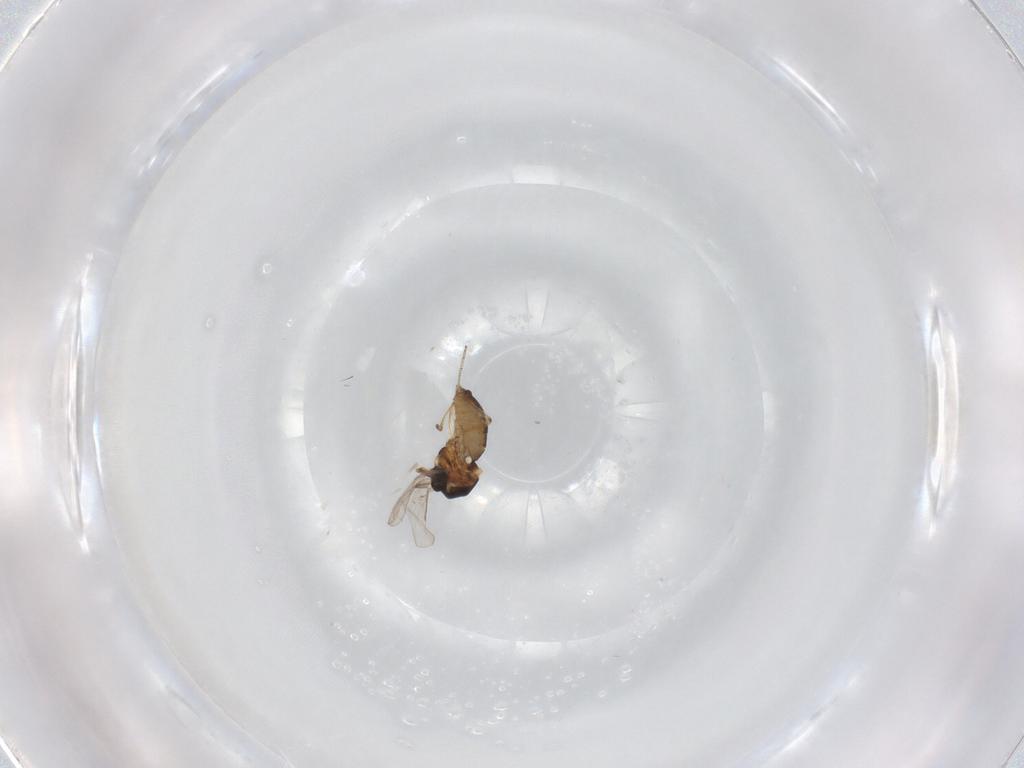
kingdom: Animalia
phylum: Arthropoda
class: Insecta
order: Diptera
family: Ceratopogonidae
